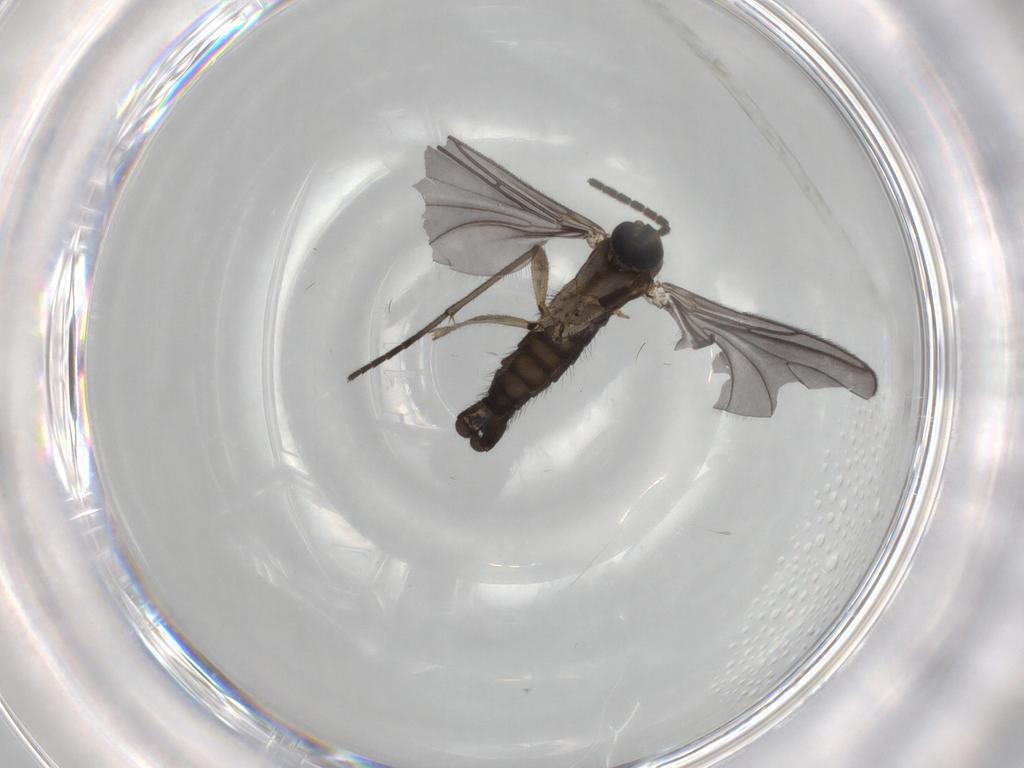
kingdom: Animalia
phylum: Arthropoda
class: Insecta
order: Diptera
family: Sciaridae
